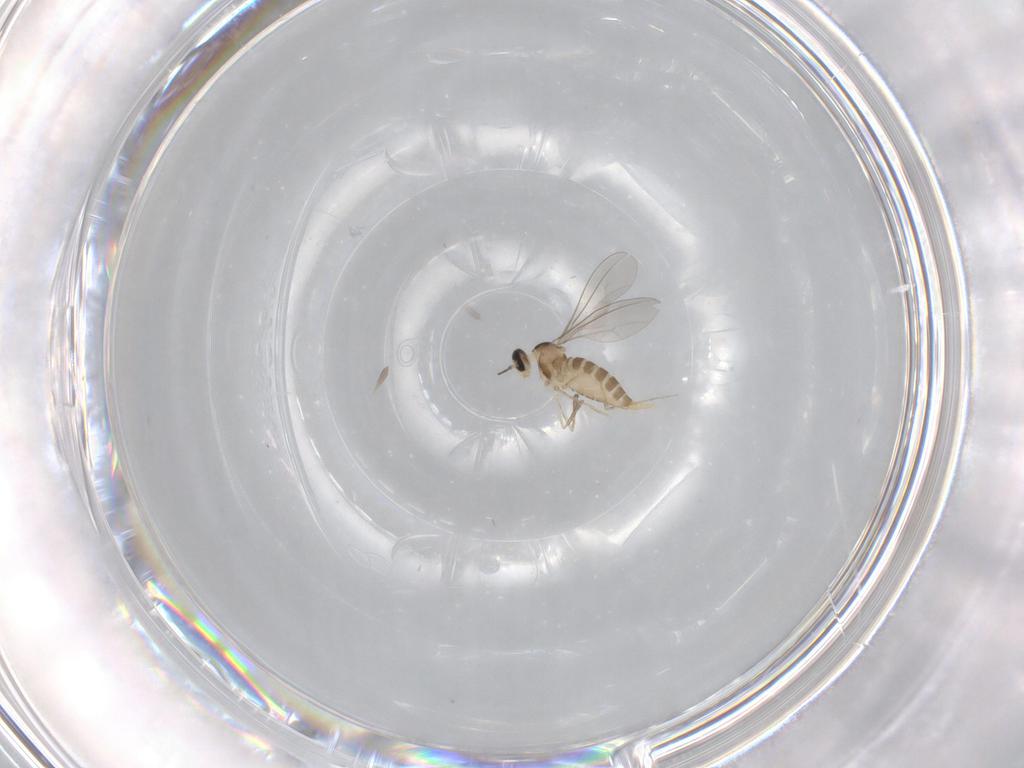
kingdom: Animalia
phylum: Arthropoda
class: Insecta
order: Diptera
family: Cecidomyiidae
